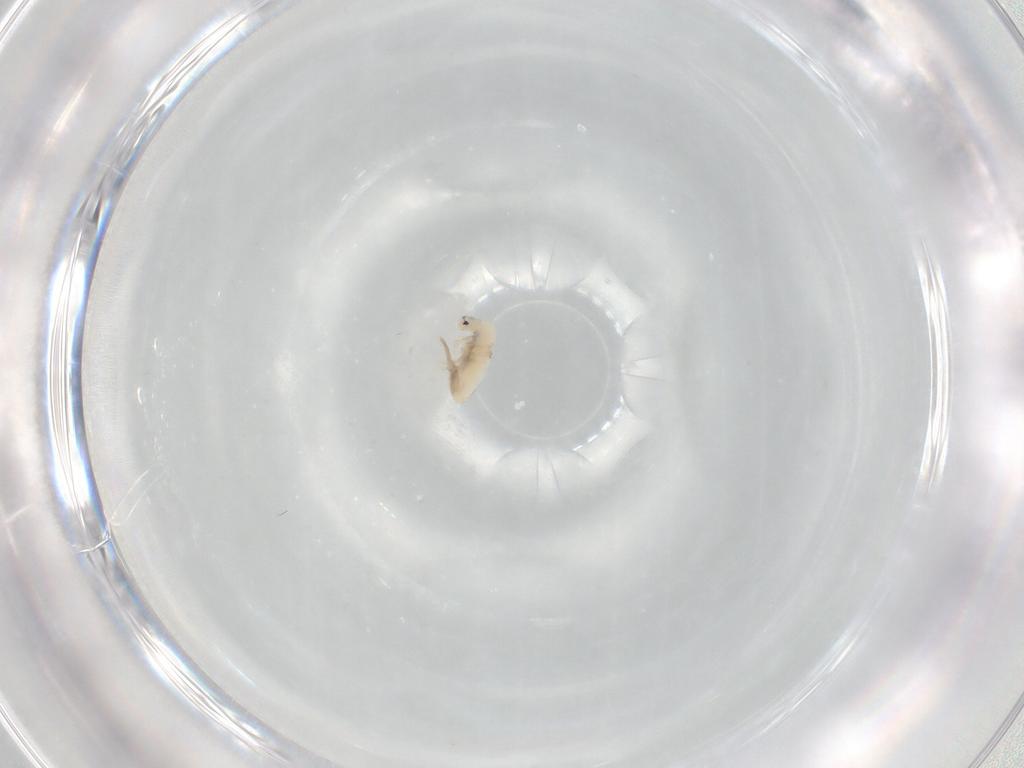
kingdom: Animalia
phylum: Arthropoda
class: Collembola
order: Entomobryomorpha
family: Entomobryidae
